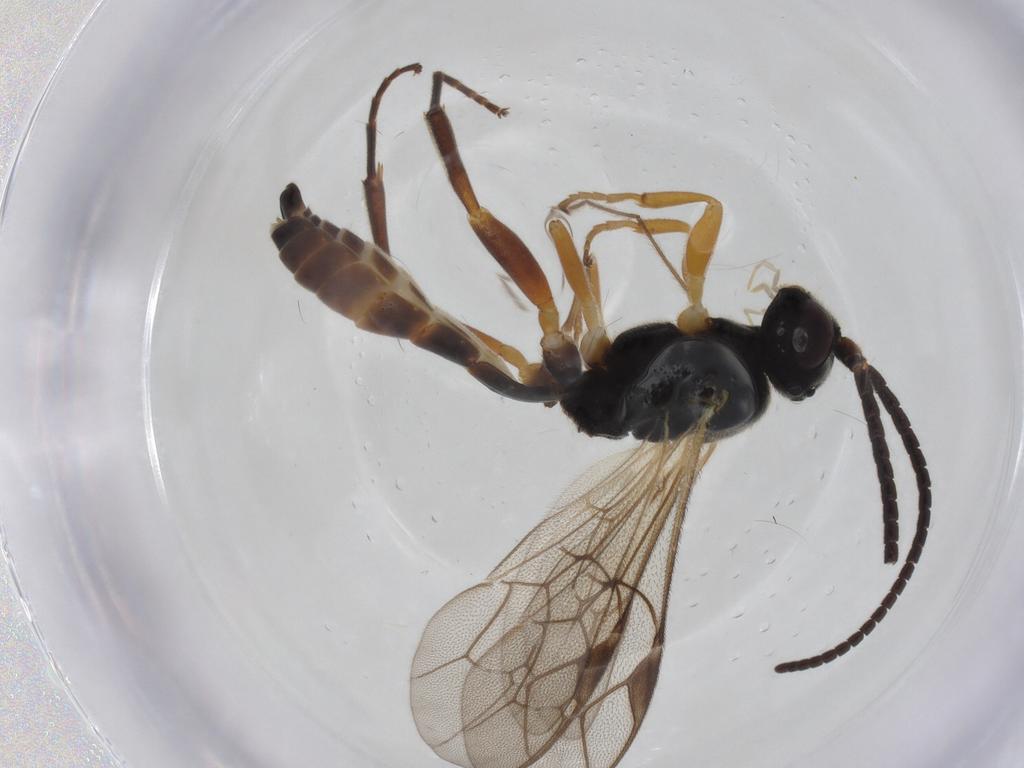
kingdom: Animalia
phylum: Arthropoda
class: Insecta
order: Hymenoptera
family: Ichneumonidae
